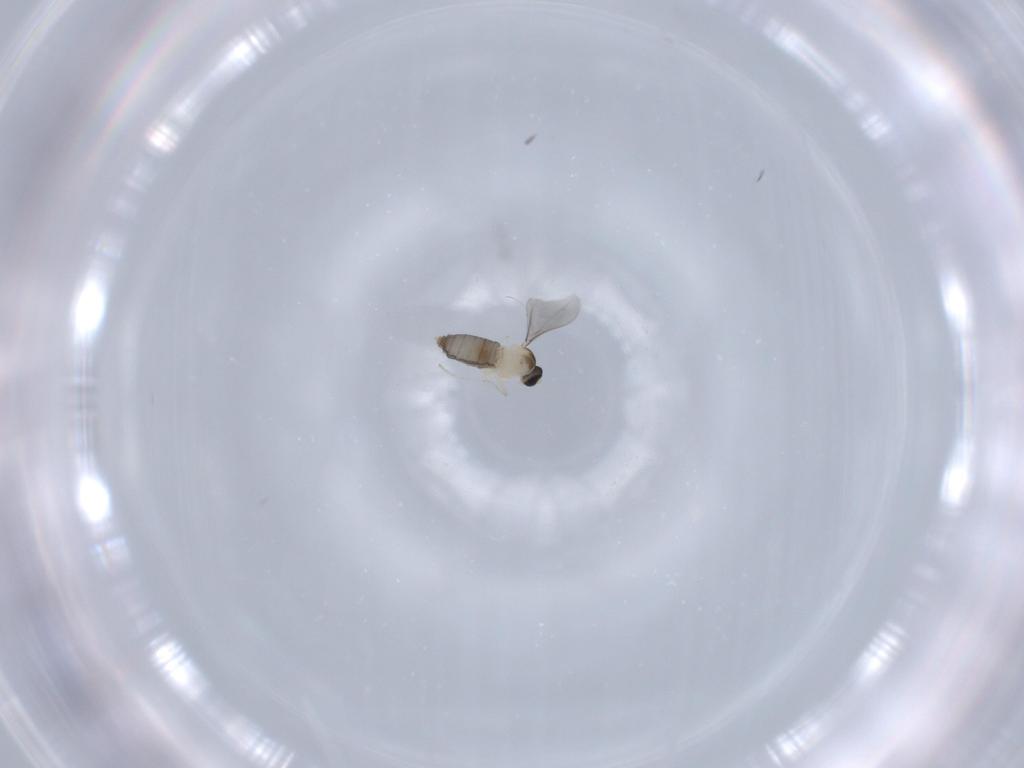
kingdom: Animalia
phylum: Arthropoda
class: Insecta
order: Diptera
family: Cecidomyiidae
